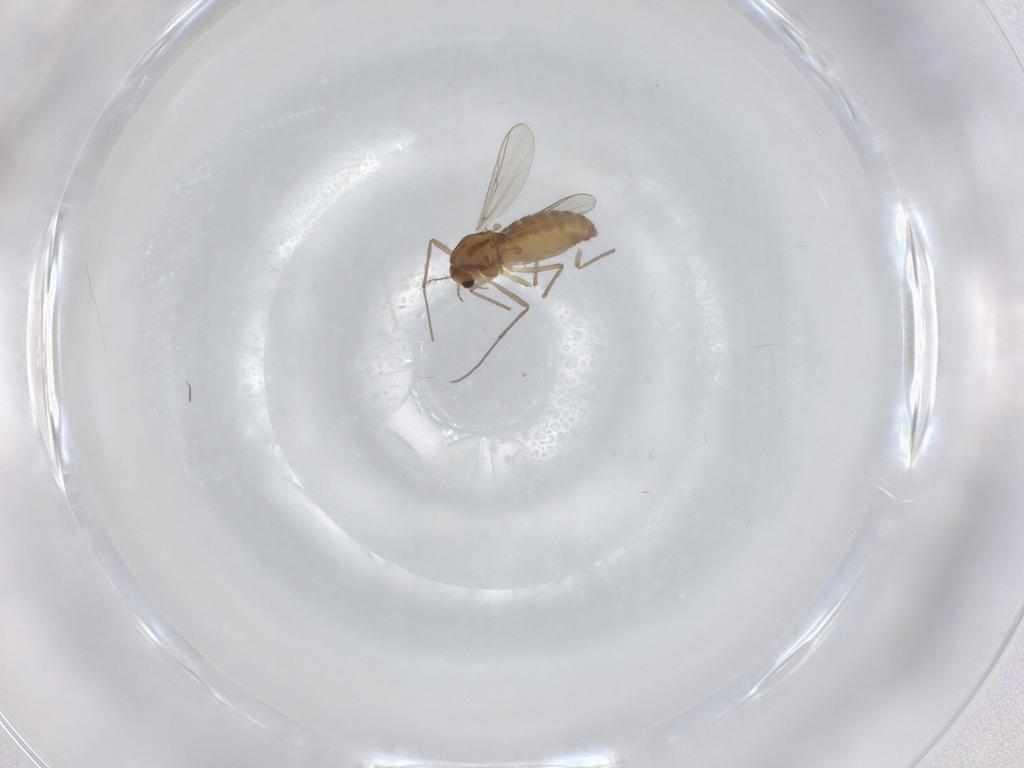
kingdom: Animalia
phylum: Arthropoda
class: Insecta
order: Diptera
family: Chironomidae
